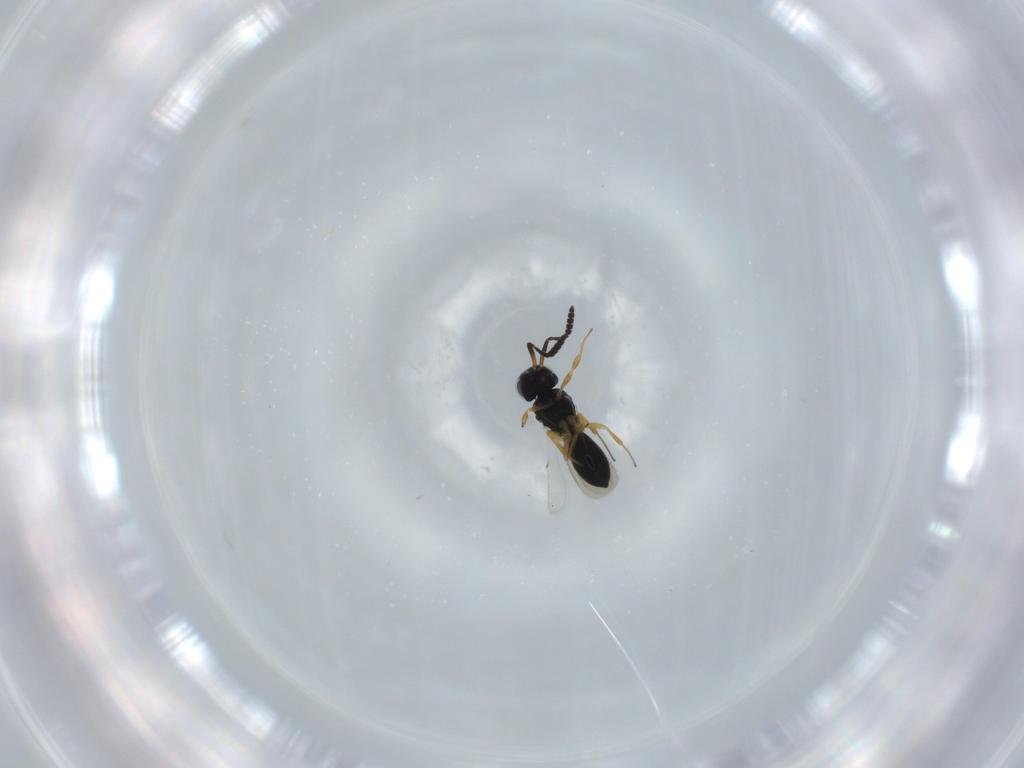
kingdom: Animalia
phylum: Arthropoda
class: Insecta
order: Hymenoptera
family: Scelionidae
